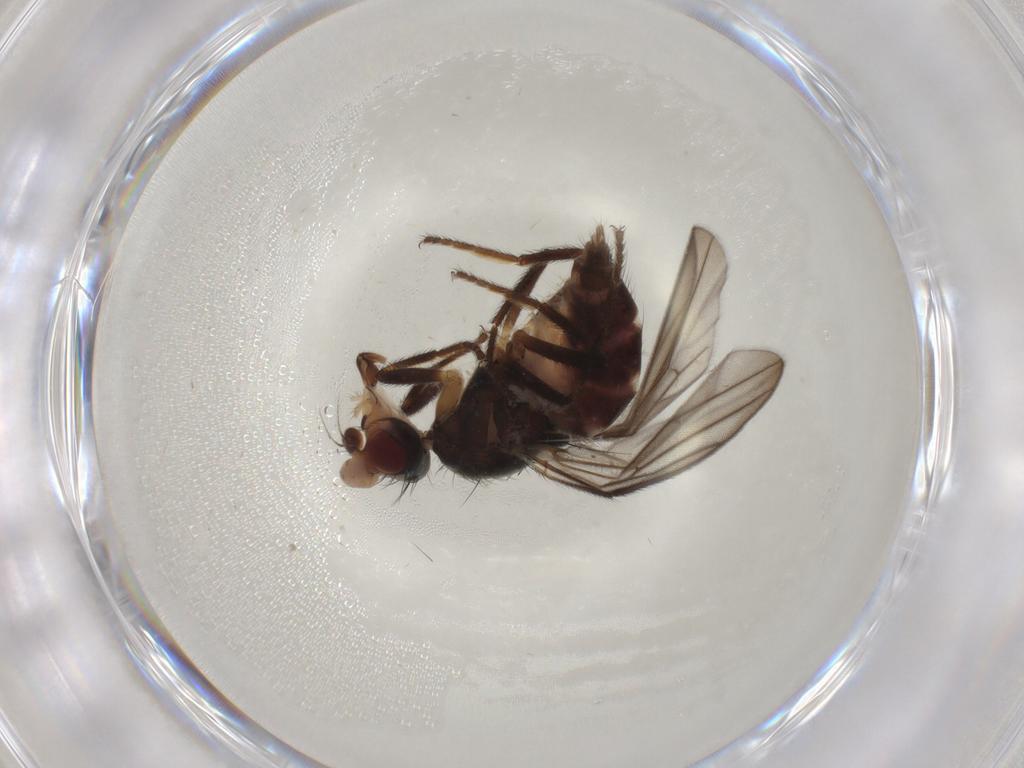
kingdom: Animalia
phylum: Arthropoda
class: Insecta
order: Diptera
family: Chloropidae
